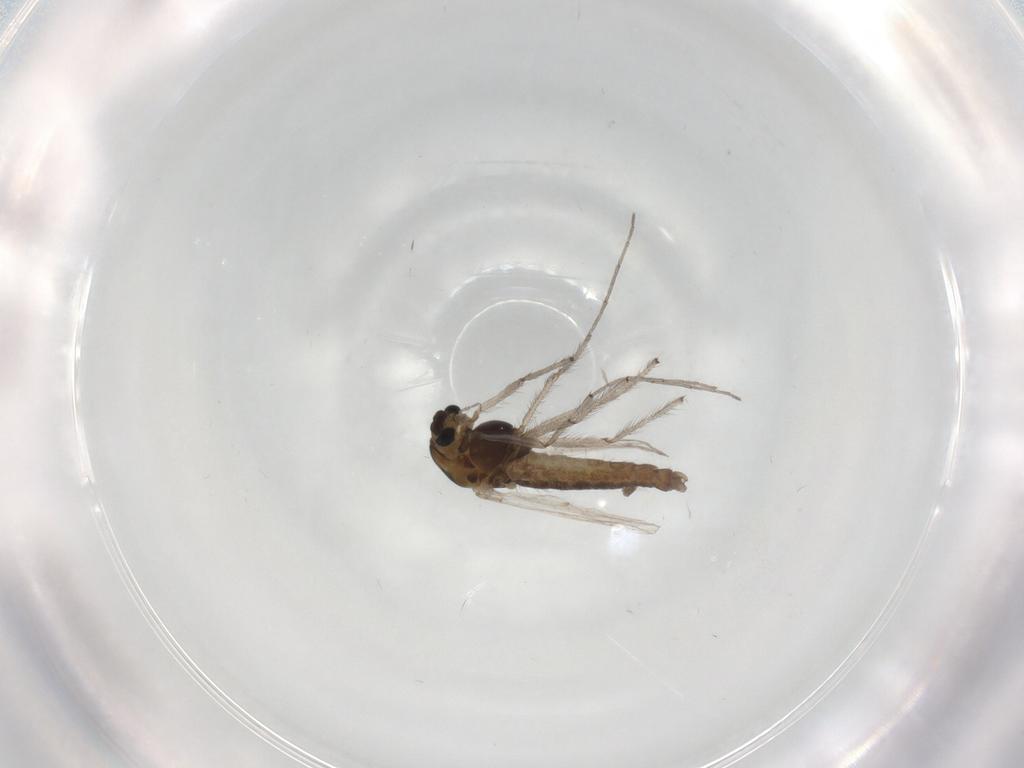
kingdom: Animalia
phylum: Arthropoda
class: Insecta
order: Diptera
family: Chironomidae
